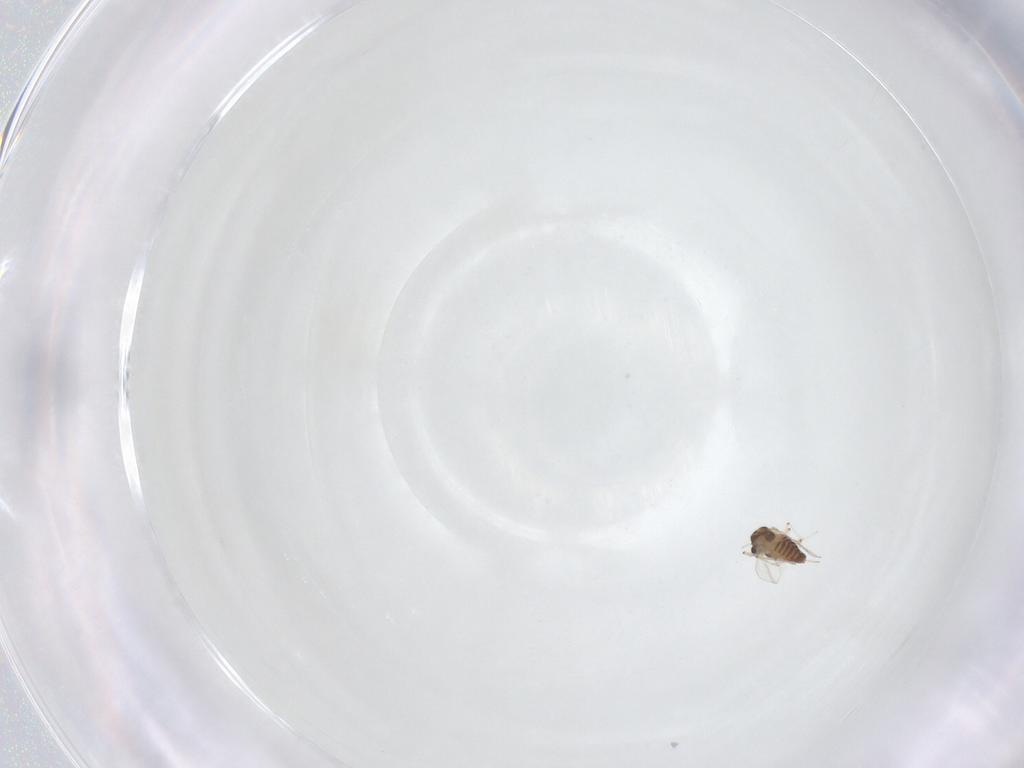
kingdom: Animalia
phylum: Arthropoda
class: Insecta
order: Diptera
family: Chironomidae
